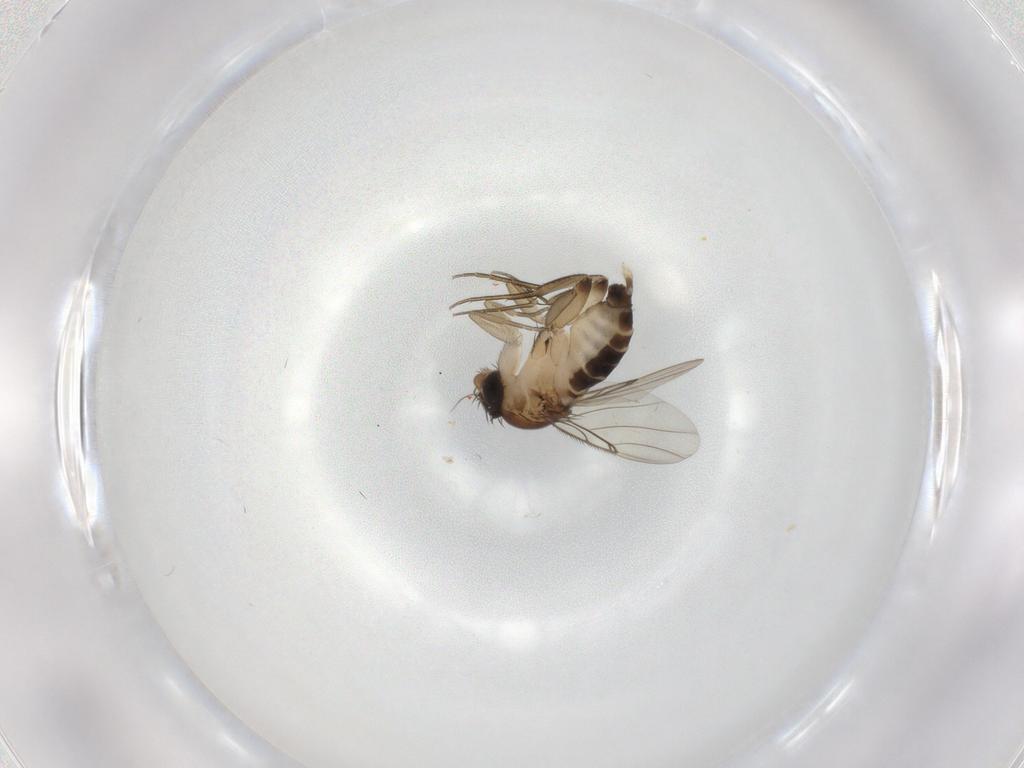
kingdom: Animalia
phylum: Arthropoda
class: Insecta
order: Diptera
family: Phoridae
